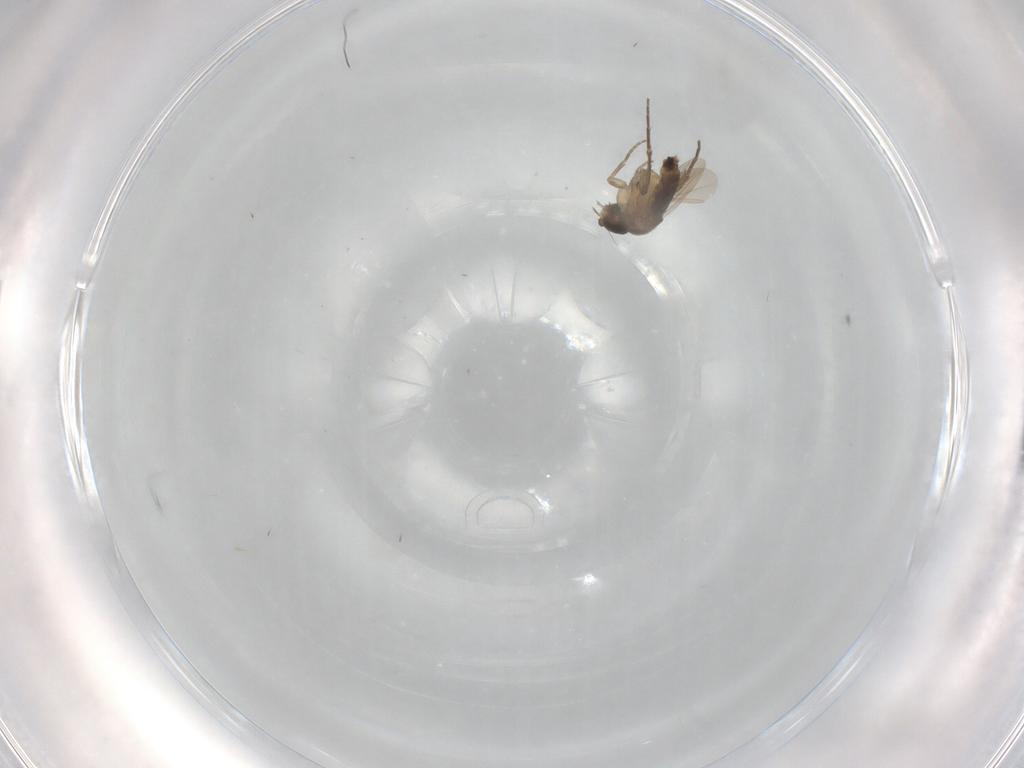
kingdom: Animalia
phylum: Arthropoda
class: Insecta
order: Diptera
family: Phoridae
